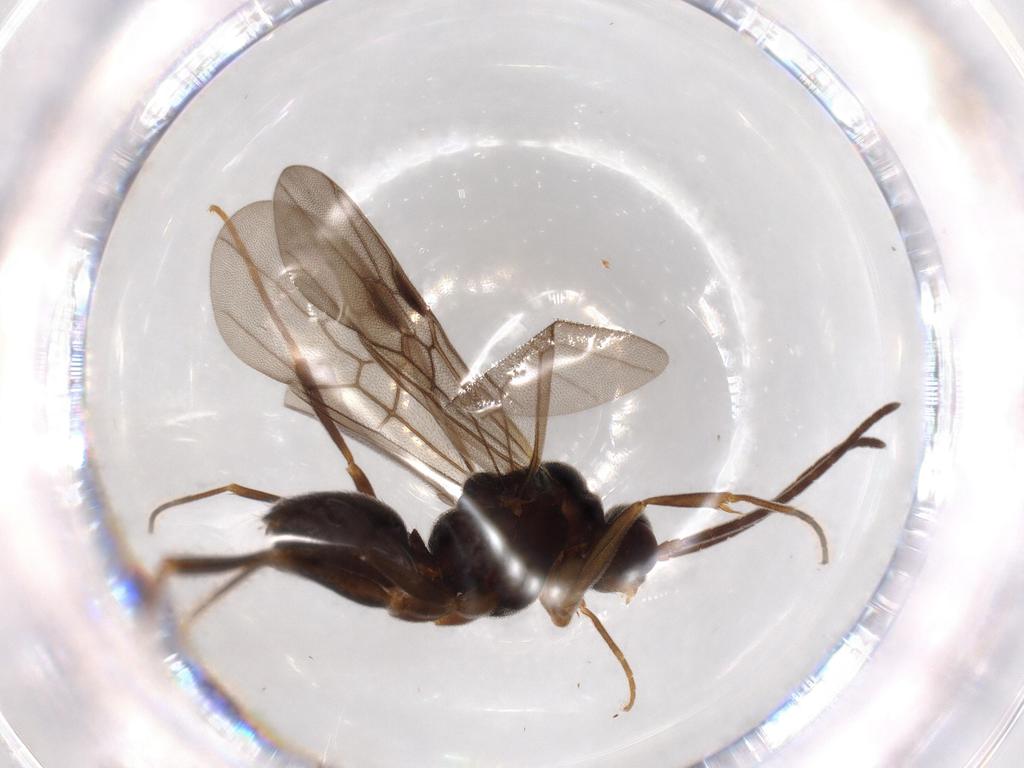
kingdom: Animalia
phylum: Arthropoda
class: Insecta
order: Hymenoptera
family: Formicidae
